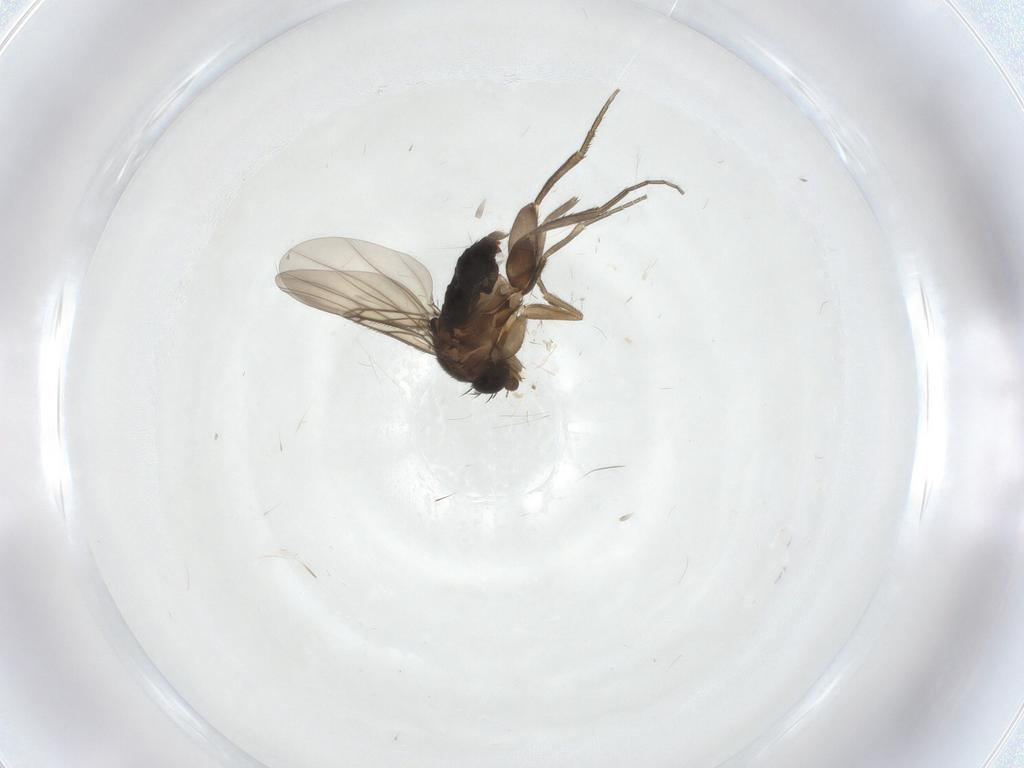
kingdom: Animalia
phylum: Arthropoda
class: Insecta
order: Diptera
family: Phoridae
